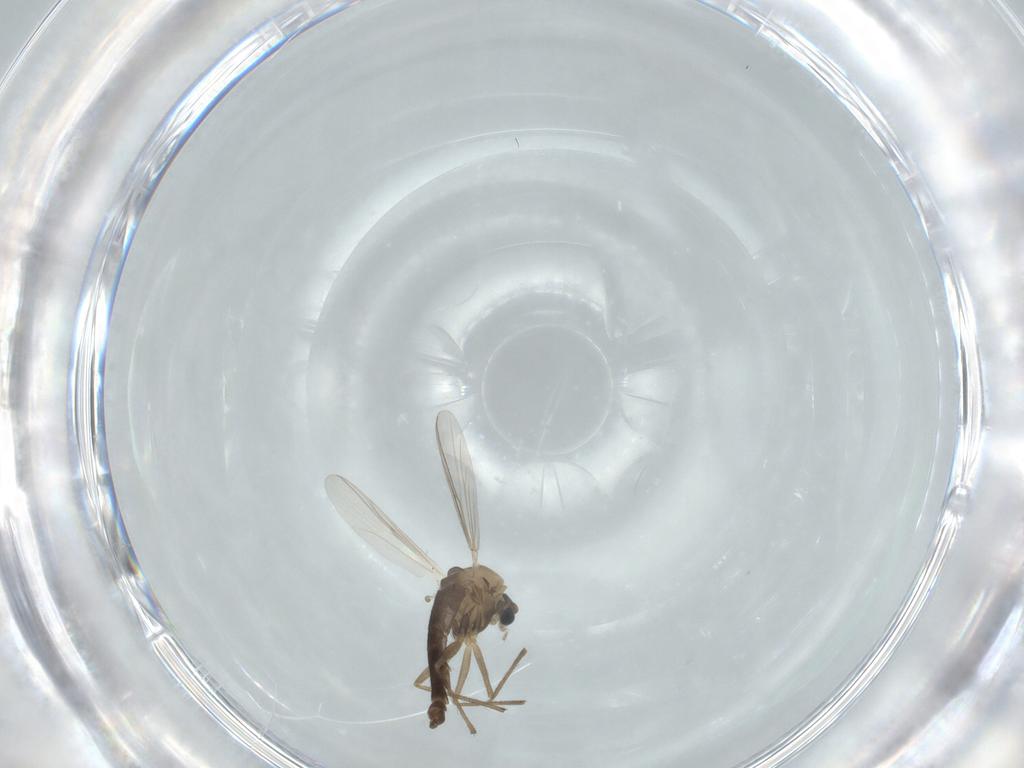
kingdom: Animalia
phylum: Arthropoda
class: Insecta
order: Diptera
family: Chironomidae
